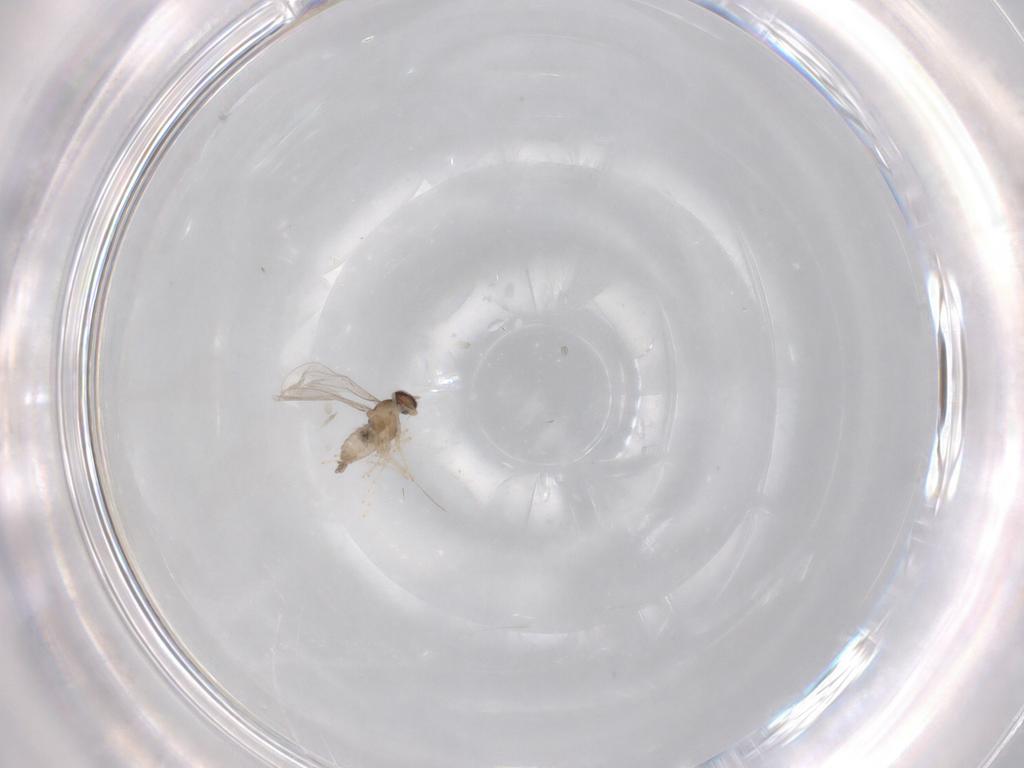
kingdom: Animalia
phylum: Arthropoda
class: Insecta
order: Diptera
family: Cecidomyiidae
